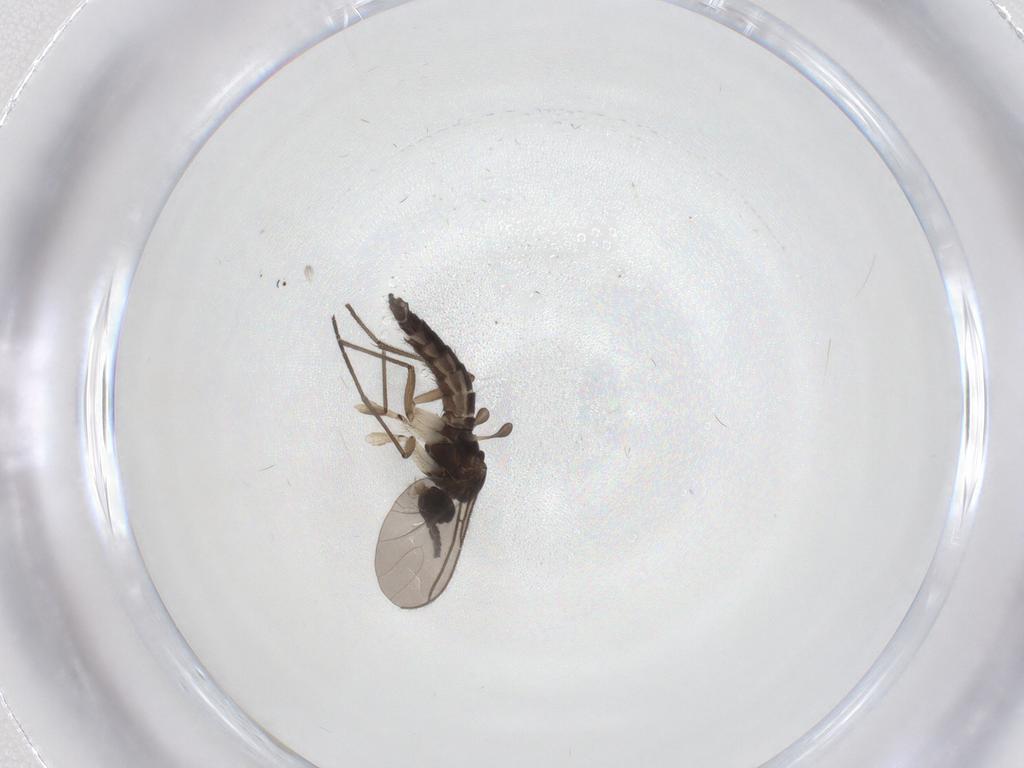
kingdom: Animalia
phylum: Arthropoda
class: Insecta
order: Diptera
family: Sciaridae
